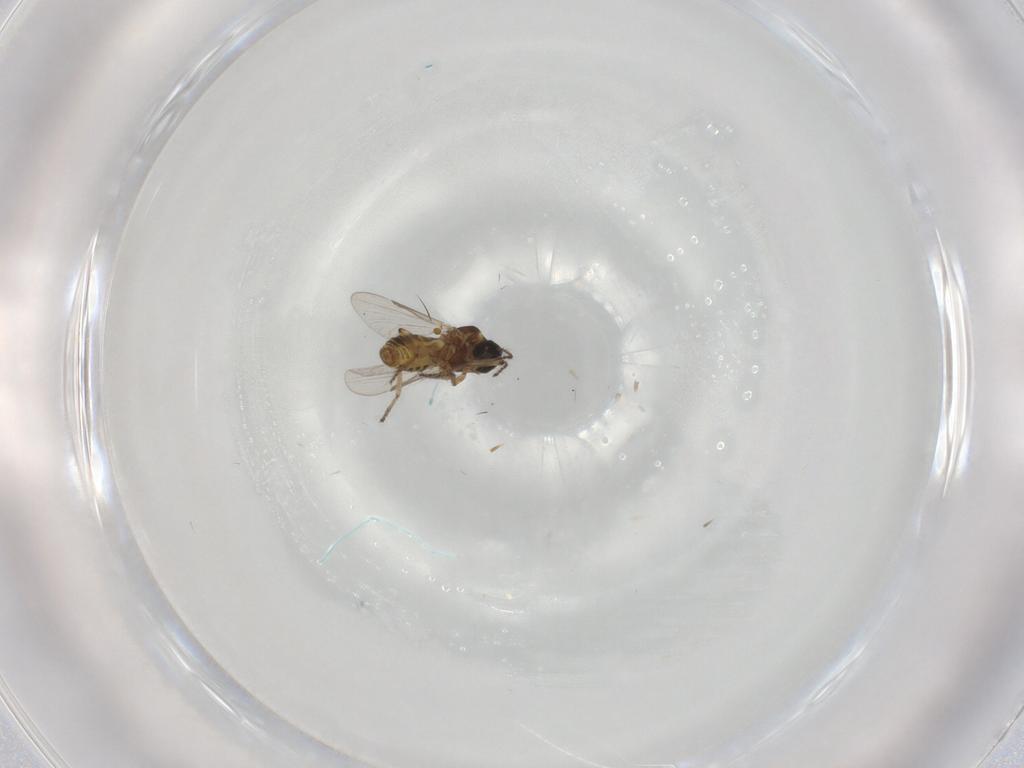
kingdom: Animalia
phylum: Arthropoda
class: Insecta
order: Diptera
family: Ceratopogonidae
